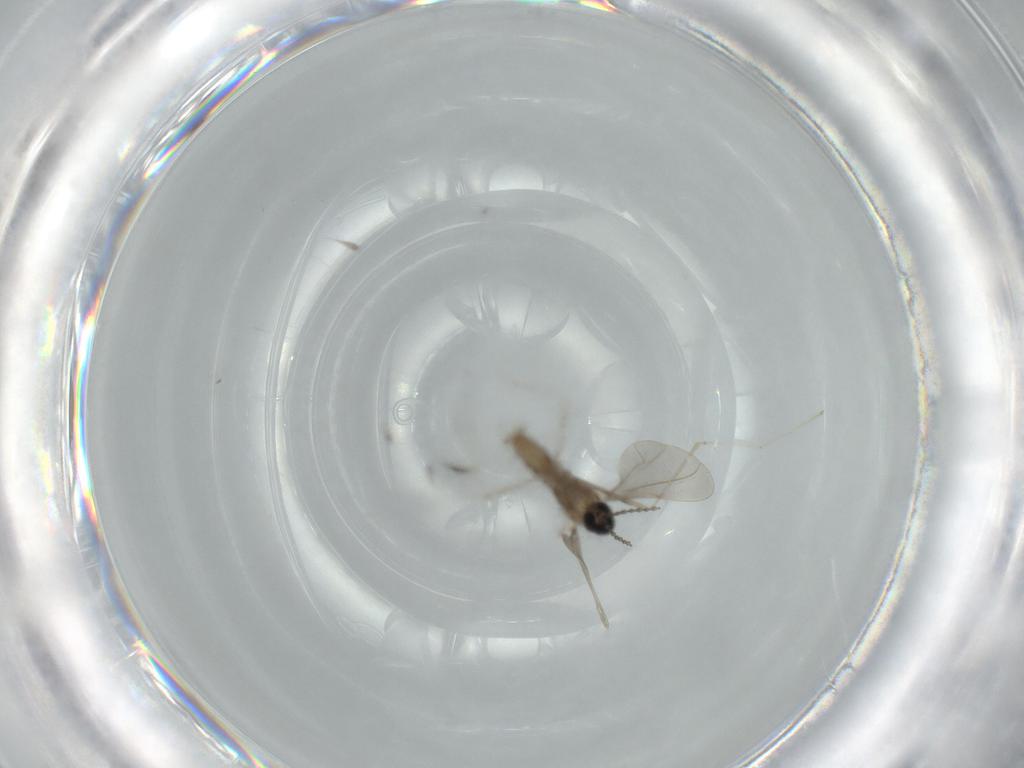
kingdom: Animalia
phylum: Arthropoda
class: Insecta
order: Diptera
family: Cecidomyiidae
